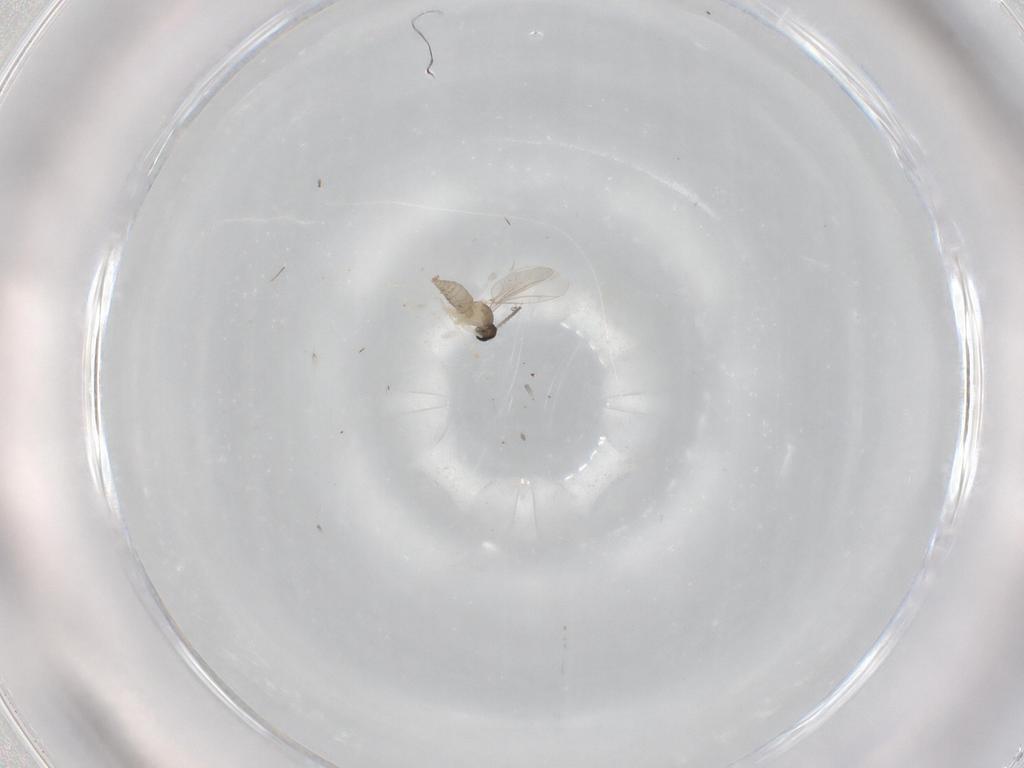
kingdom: Animalia
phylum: Arthropoda
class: Insecta
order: Diptera
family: Cecidomyiidae
